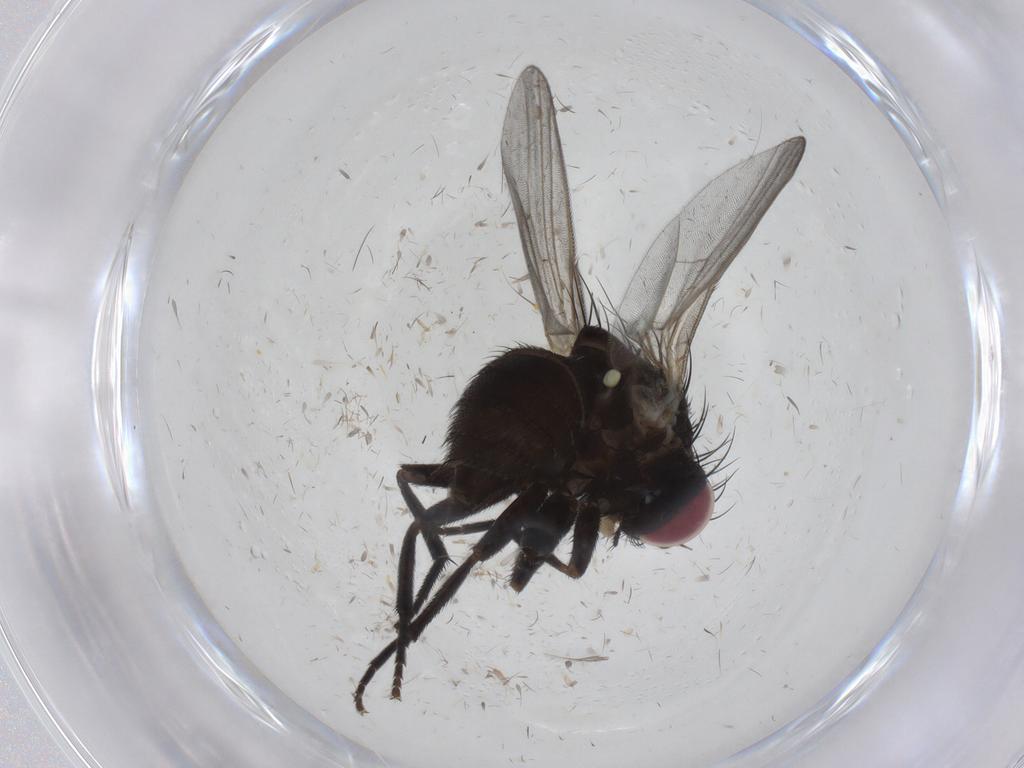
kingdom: Animalia
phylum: Arthropoda
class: Insecta
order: Diptera
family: Agromyzidae
